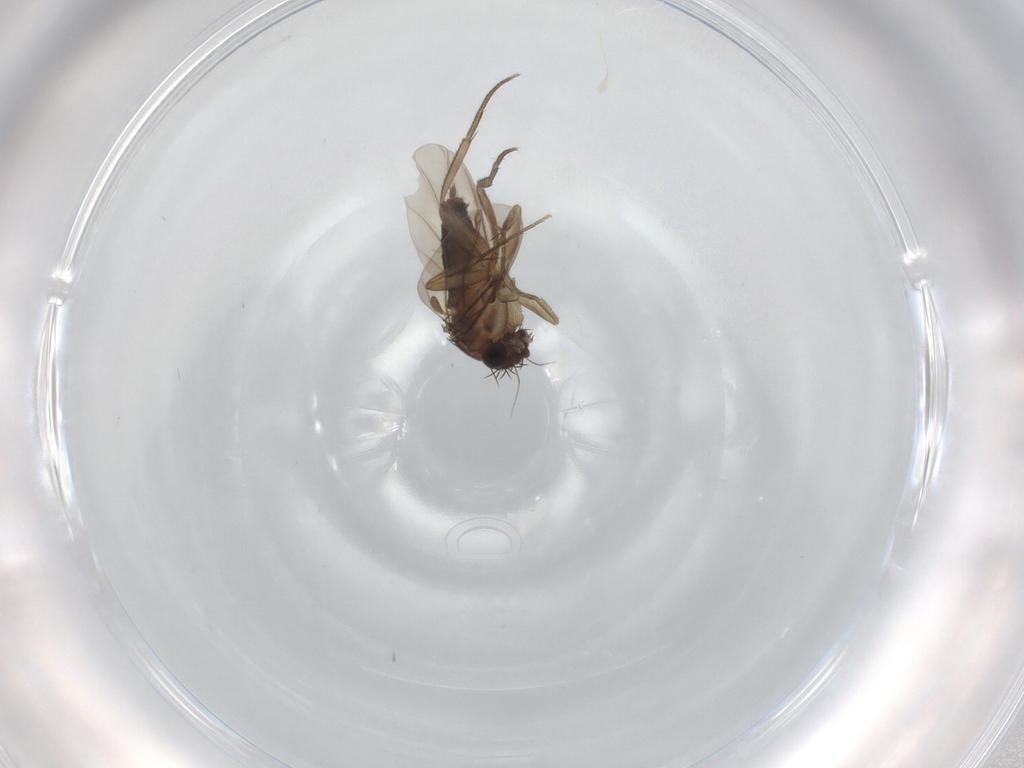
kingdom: Animalia
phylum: Arthropoda
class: Insecta
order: Diptera
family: Phoridae
